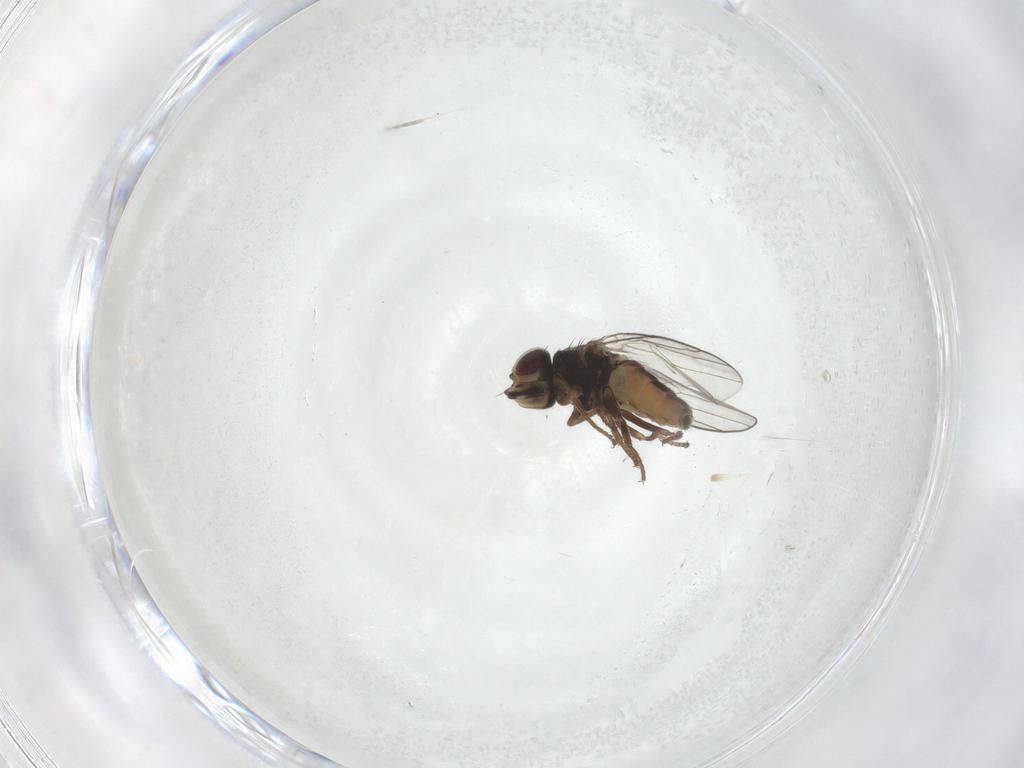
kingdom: Animalia
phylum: Arthropoda
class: Insecta
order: Diptera
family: Chloropidae
